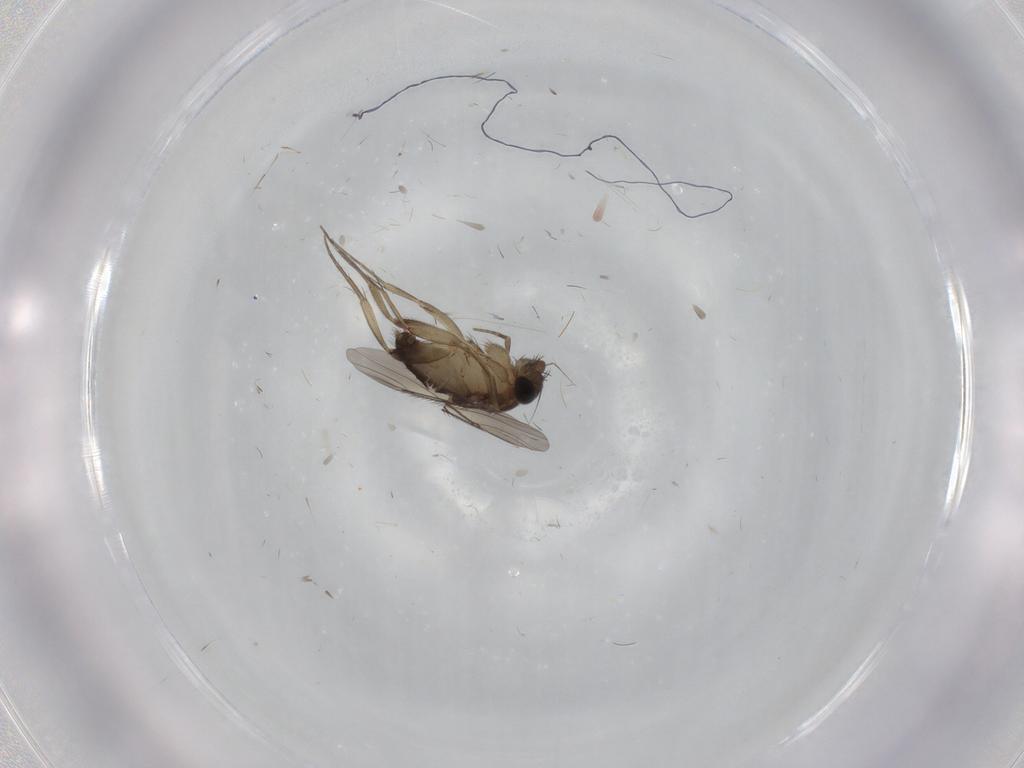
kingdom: Animalia
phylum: Arthropoda
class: Insecta
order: Diptera
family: Phoridae
